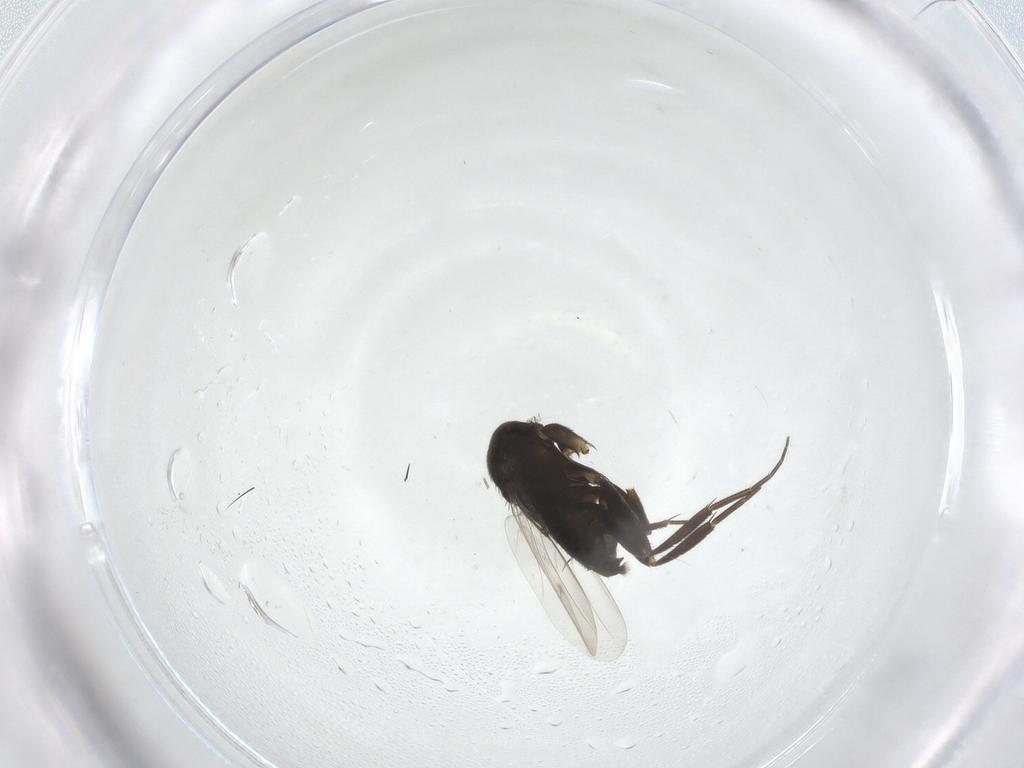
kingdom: Animalia
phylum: Arthropoda
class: Insecta
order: Diptera
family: Phoridae
